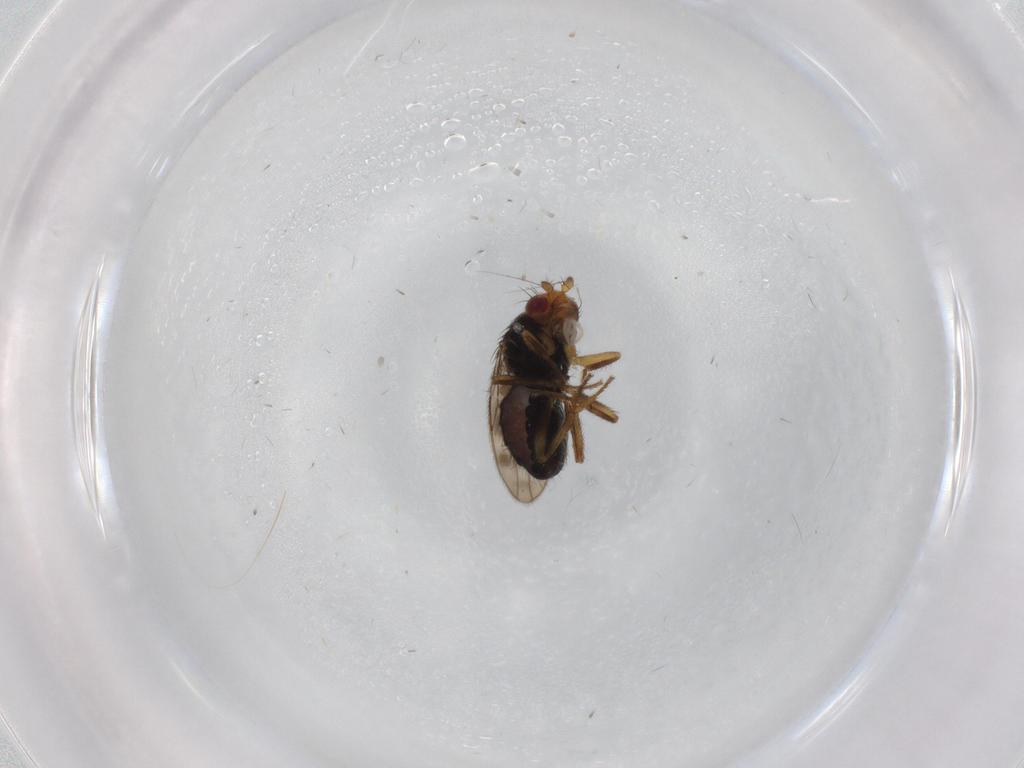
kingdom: Animalia
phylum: Arthropoda
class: Insecta
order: Diptera
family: Sphaeroceridae
